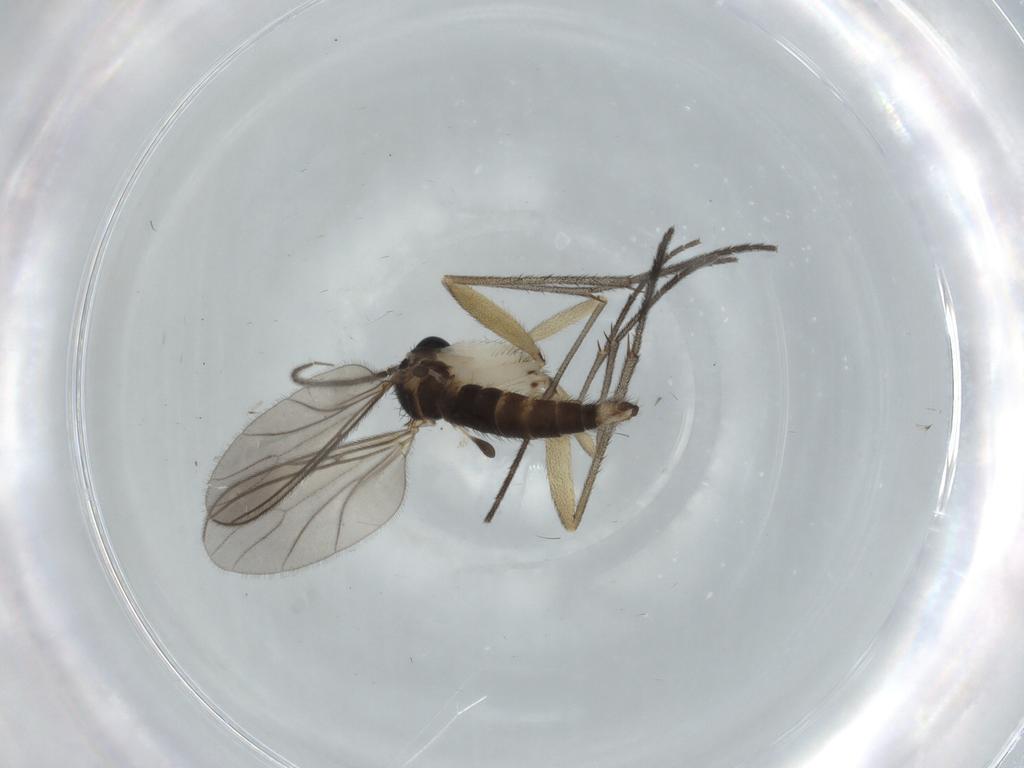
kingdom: Animalia
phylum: Arthropoda
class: Insecta
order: Diptera
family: Sciaridae
